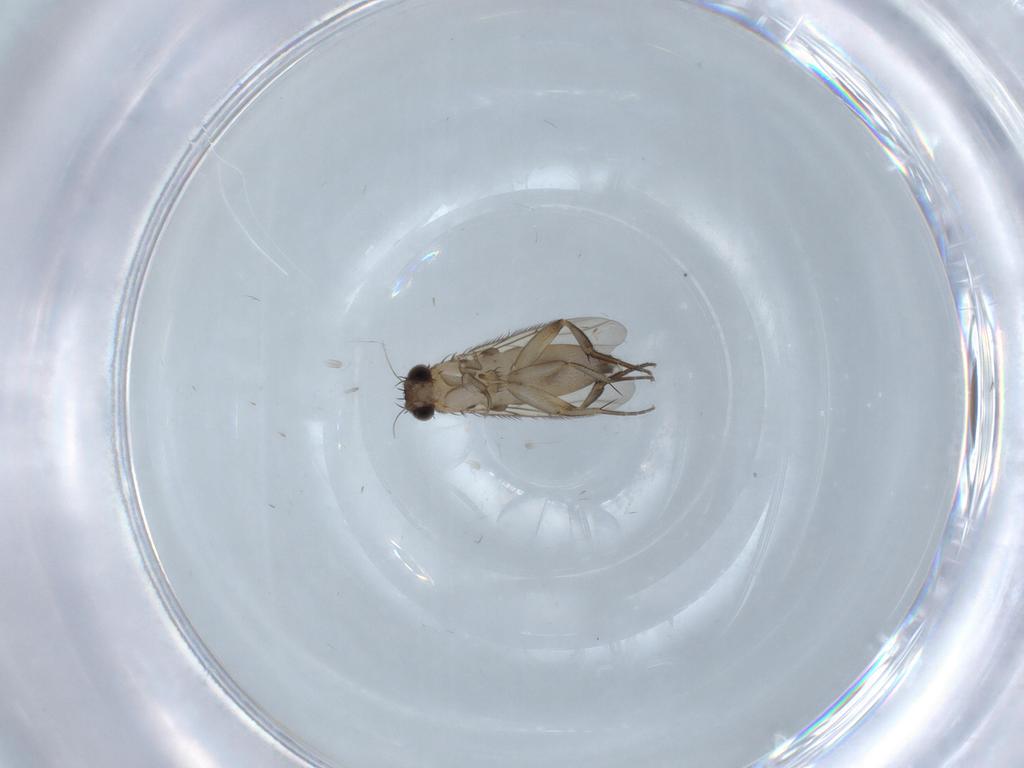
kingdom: Animalia
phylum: Arthropoda
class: Insecta
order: Diptera
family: Phoridae
